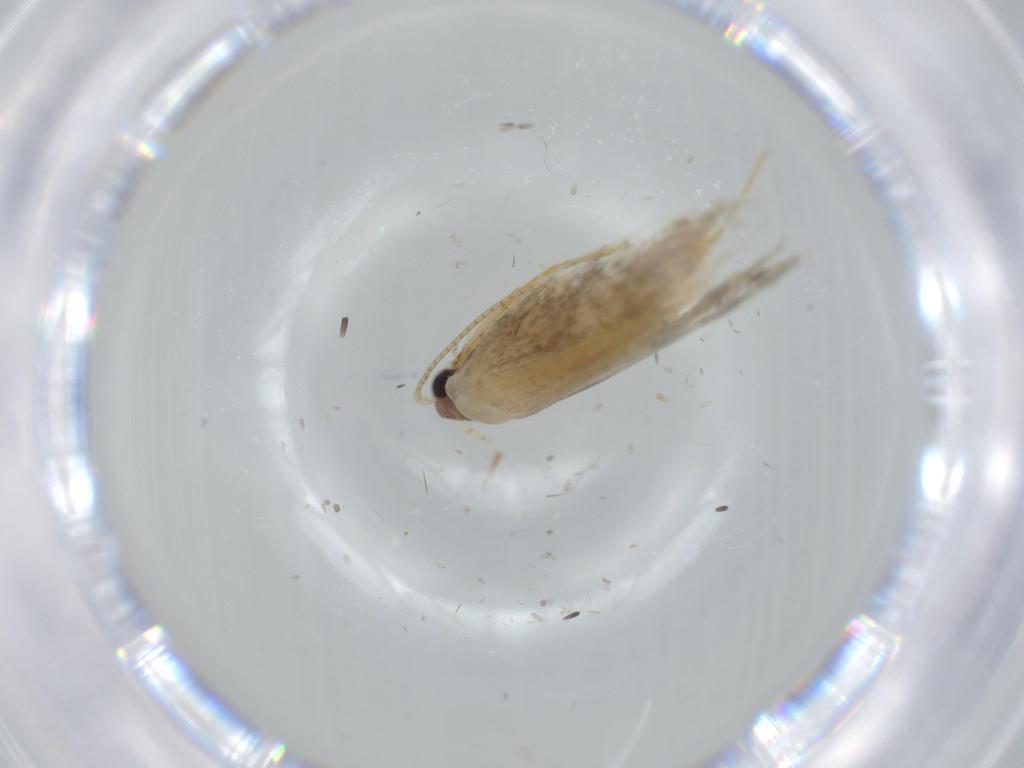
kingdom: Animalia
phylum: Arthropoda
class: Insecta
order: Lepidoptera
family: Tineidae
